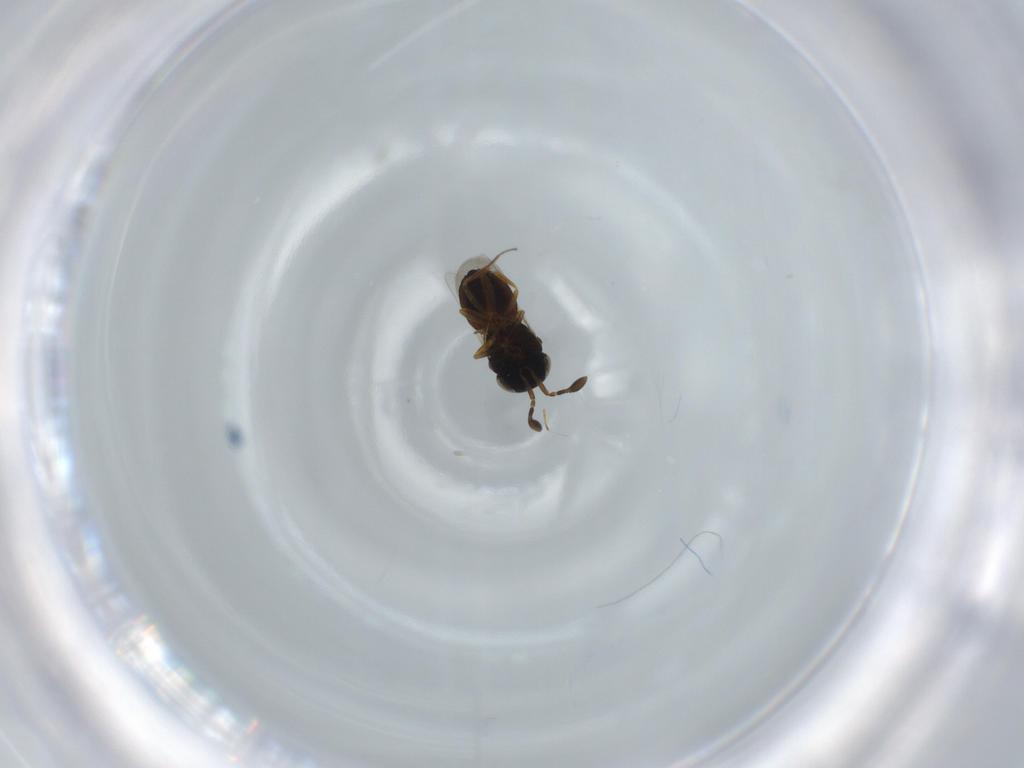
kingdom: Animalia
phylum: Arthropoda
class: Insecta
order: Coleoptera
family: Curculionidae
